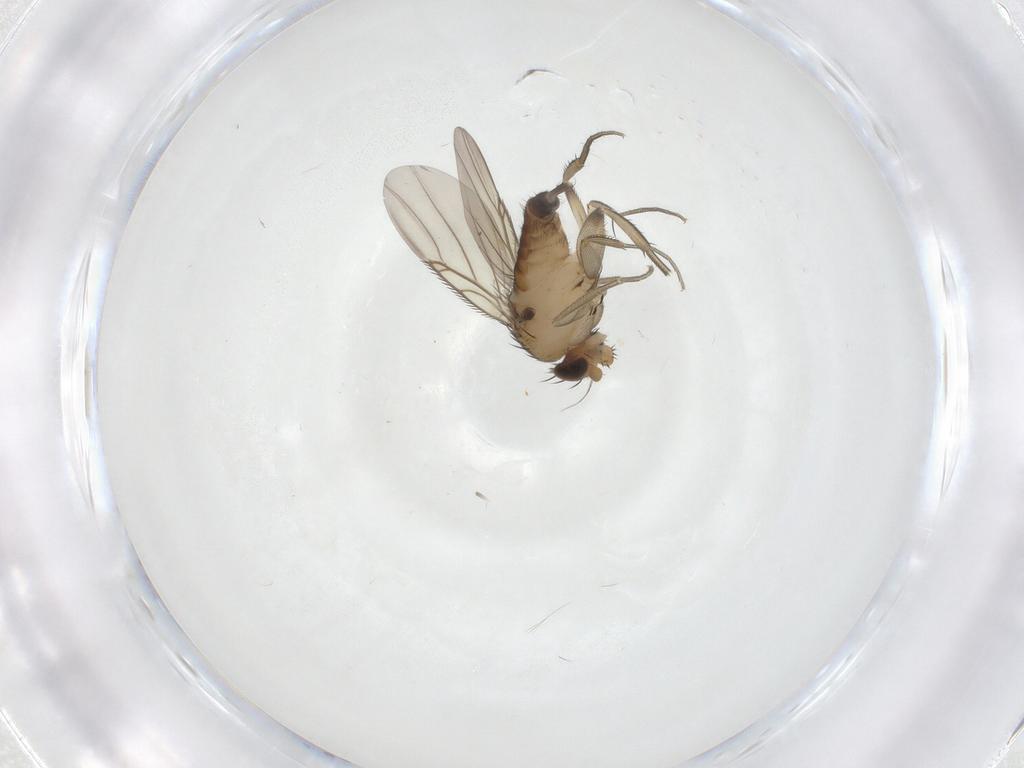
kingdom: Animalia
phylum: Arthropoda
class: Insecta
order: Diptera
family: Phoridae
